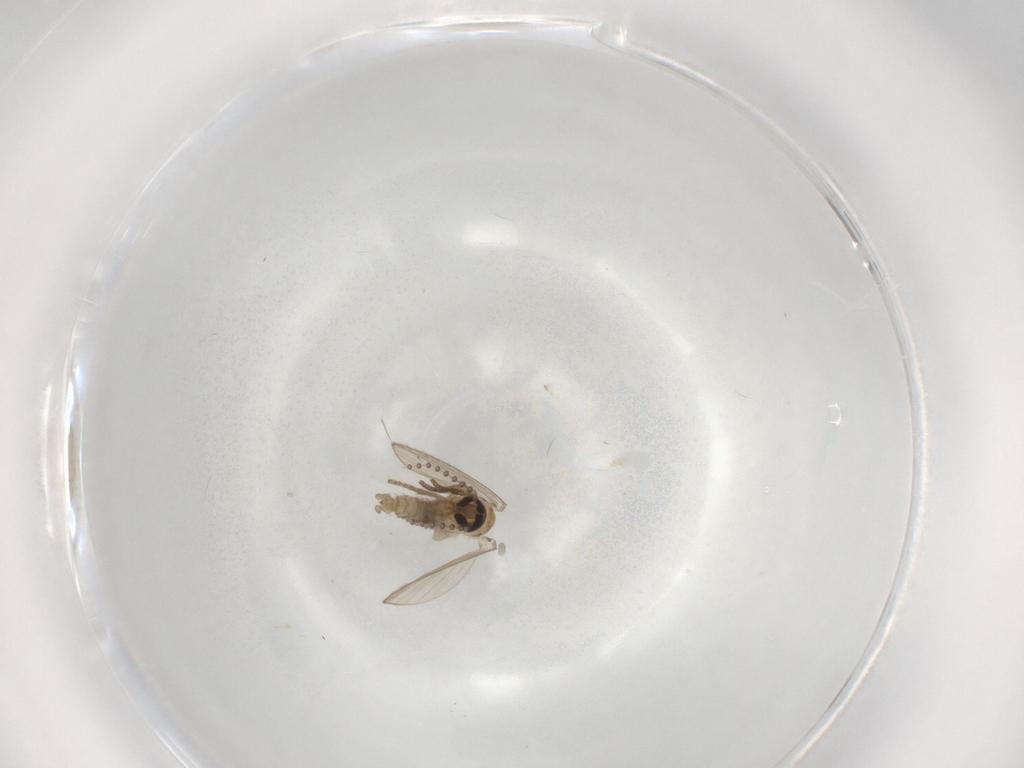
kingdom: Animalia
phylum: Arthropoda
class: Insecta
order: Diptera
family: Psychodidae
